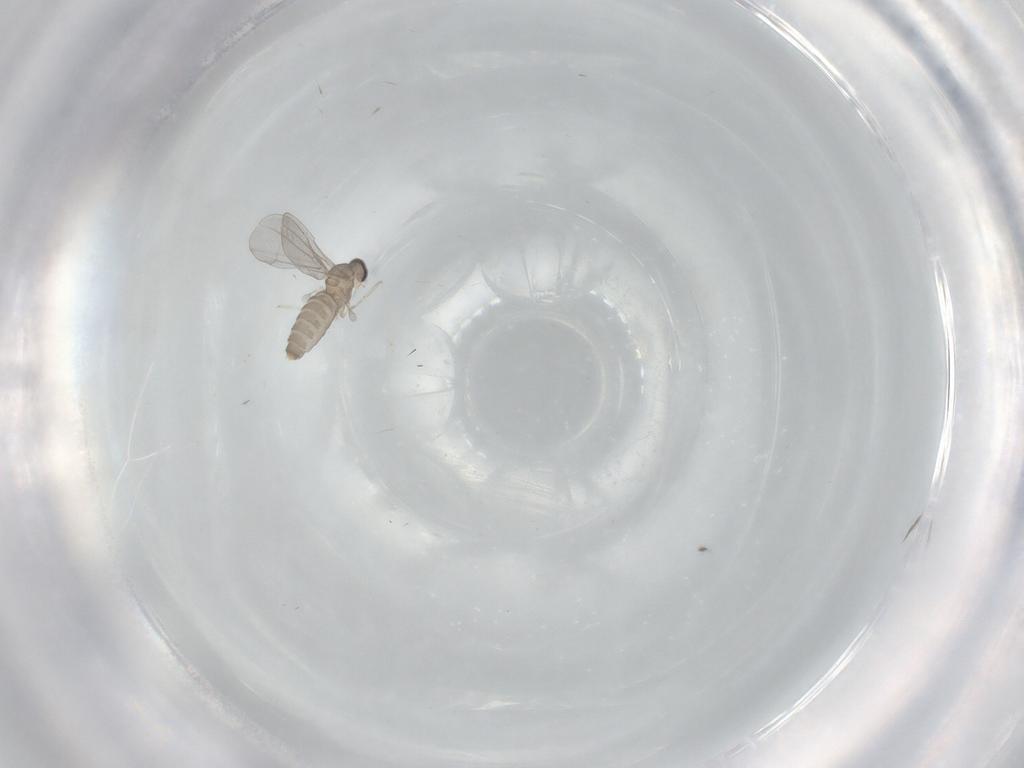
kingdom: Animalia
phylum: Arthropoda
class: Insecta
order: Diptera
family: Cecidomyiidae
